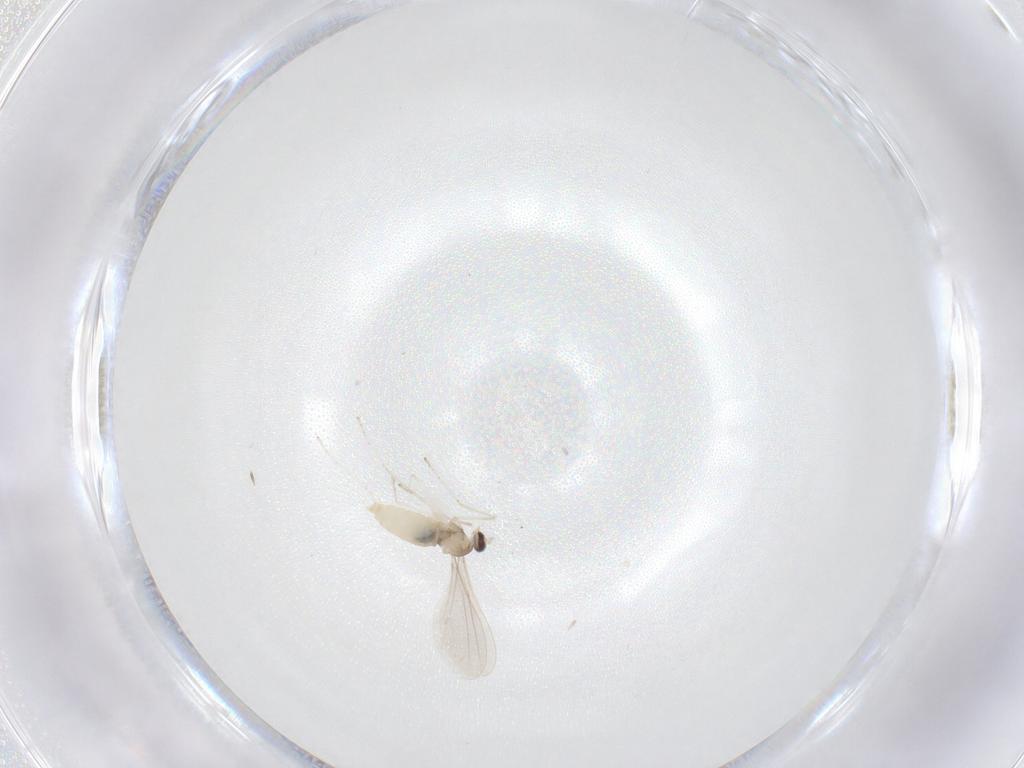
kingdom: Animalia
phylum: Arthropoda
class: Insecta
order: Diptera
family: Cecidomyiidae
